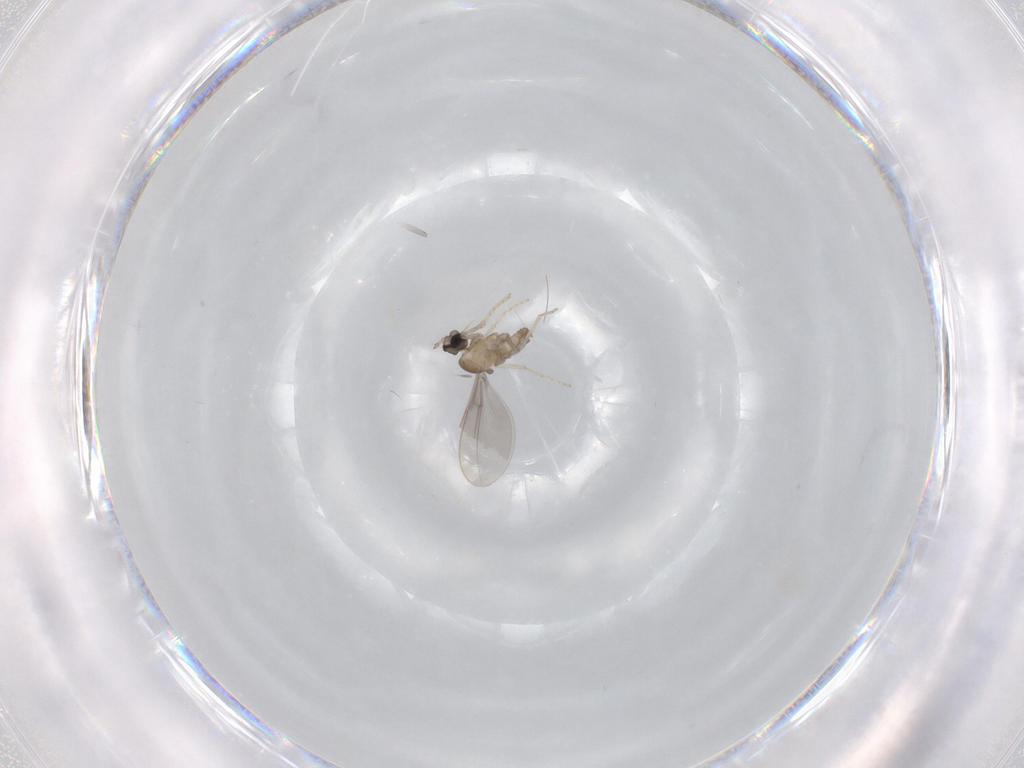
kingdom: Animalia
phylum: Arthropoda
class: Insecta
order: Diptera
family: Sciaridae
